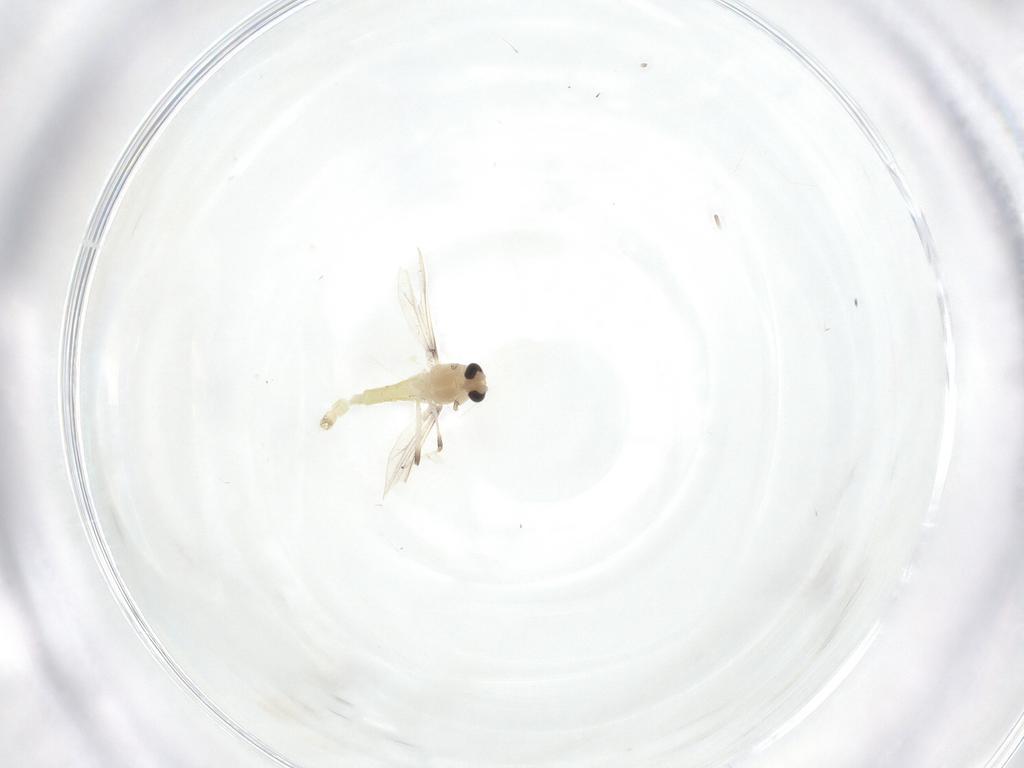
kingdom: Animalia
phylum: Arthropoda
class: Insecta
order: Diptera
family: Chironomidae
